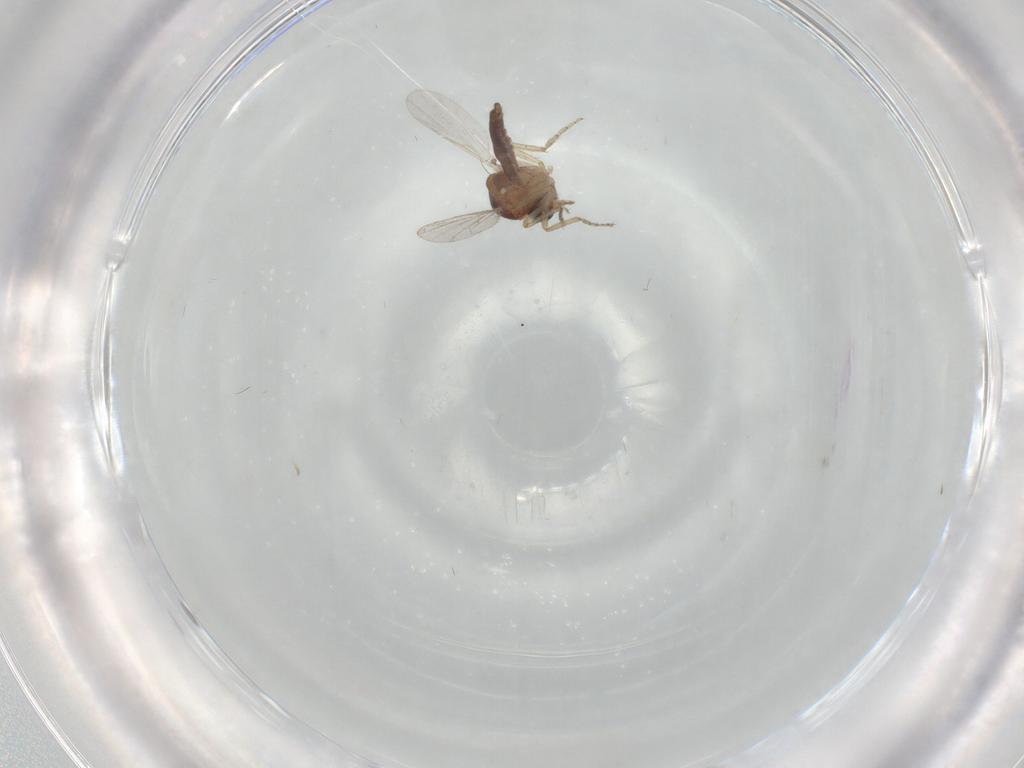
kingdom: Animalia
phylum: Arthropoda
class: Insecta
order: Diptera
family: Ceratopogonidae
